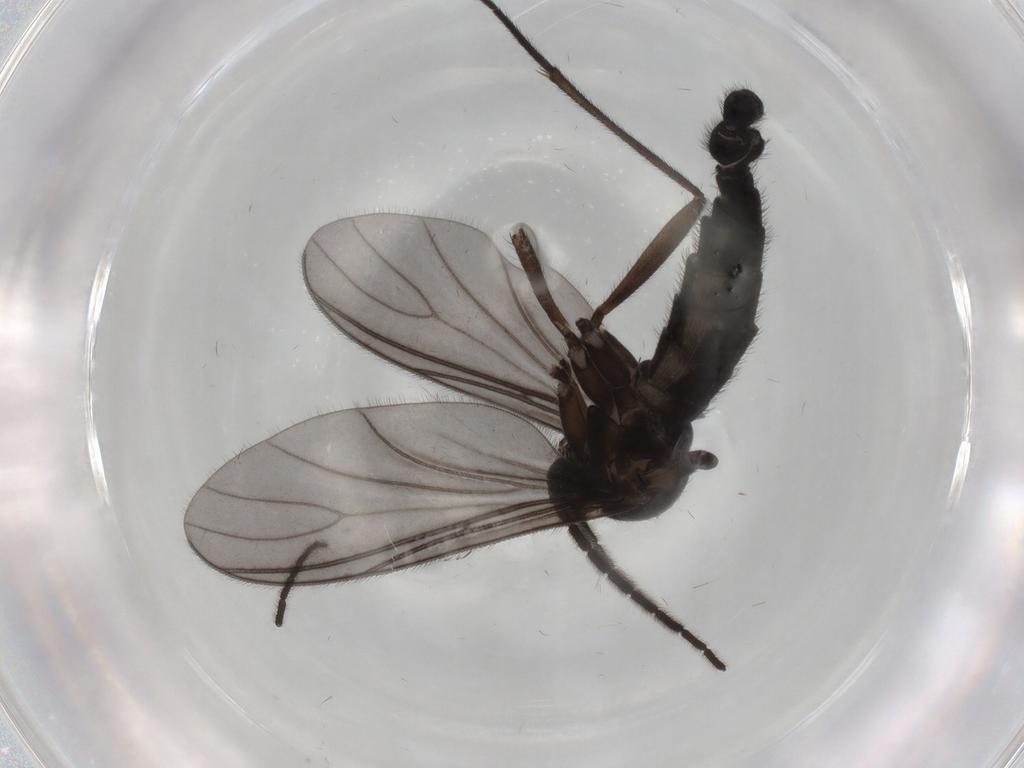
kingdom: Animalia
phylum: Arthropoda
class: Insecta
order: Diptera
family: Sciaridae
